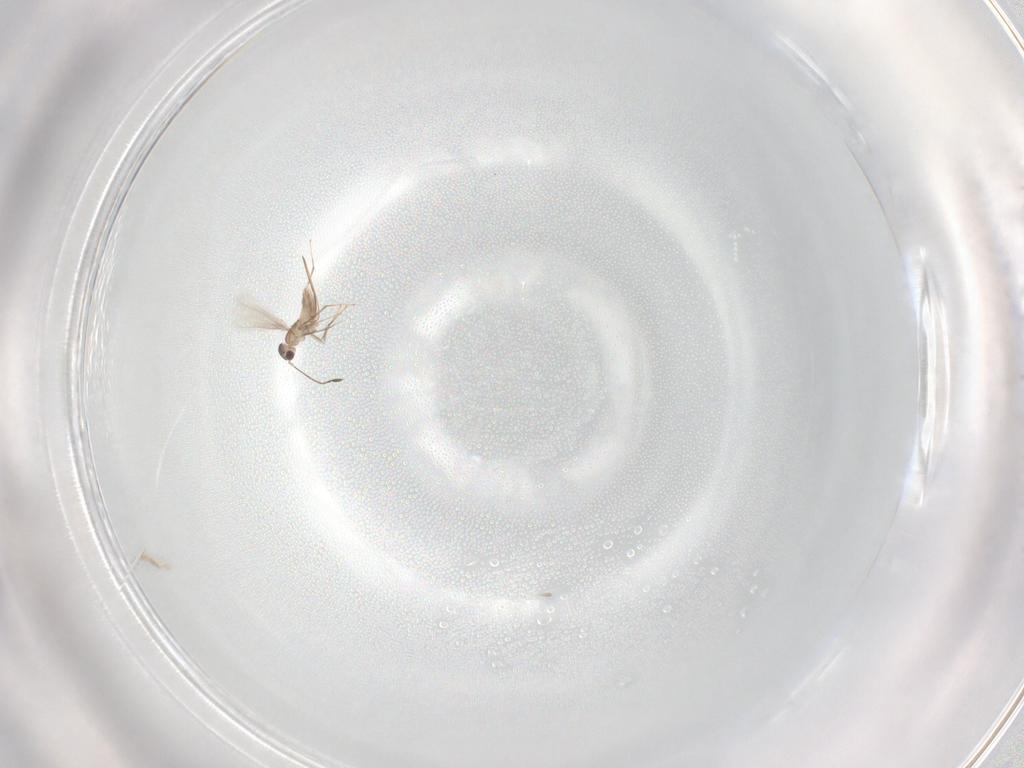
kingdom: Animalia
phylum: Arthropoda
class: Insecta
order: Hymenoptera
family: Mymaridae
